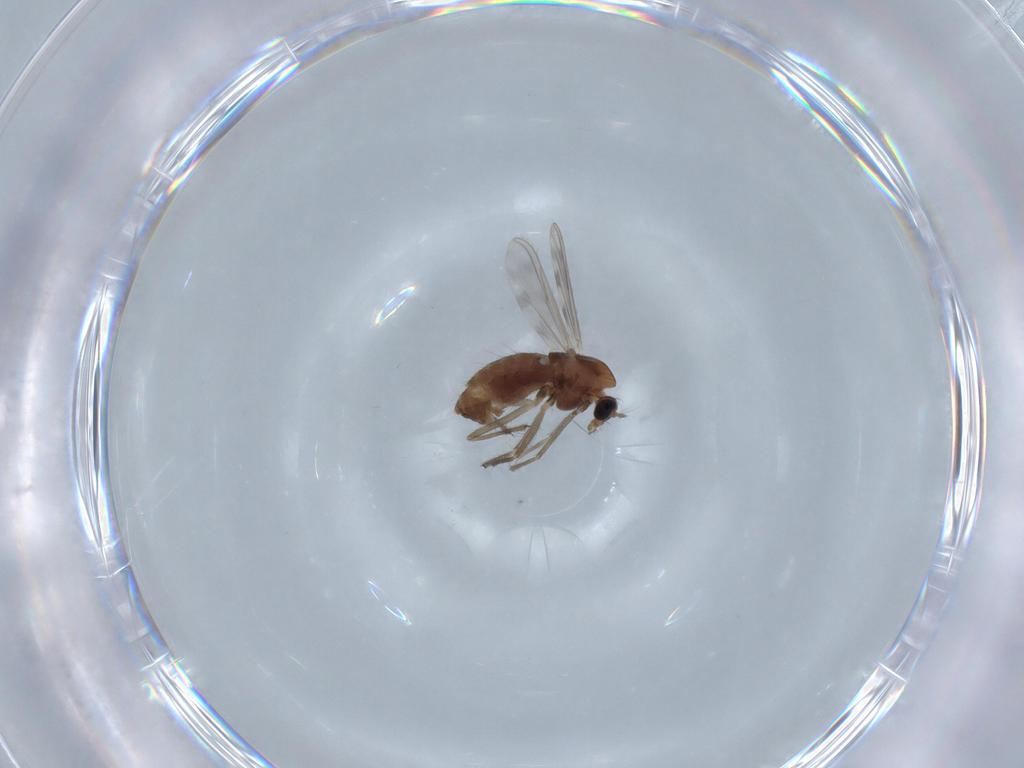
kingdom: Animalia
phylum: Arthropoda
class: Insecta
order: Diptera
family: Chironomidae
